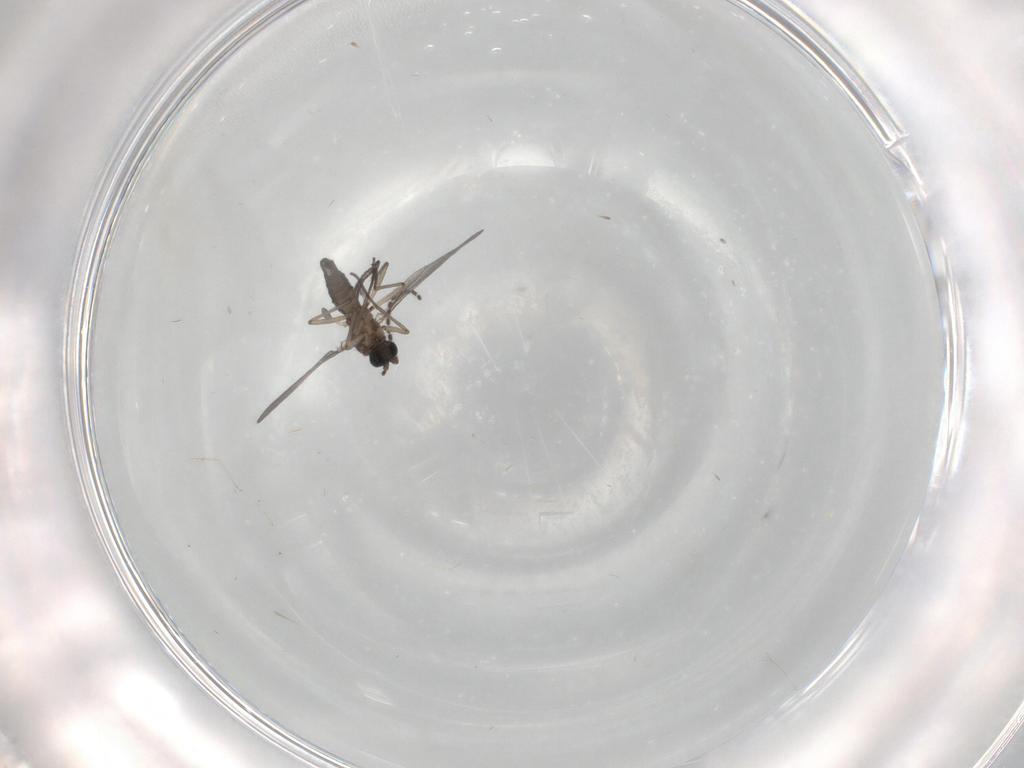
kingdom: Animalia
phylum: Arthropoda
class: Insecta
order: Diptera
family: Sciaridae
